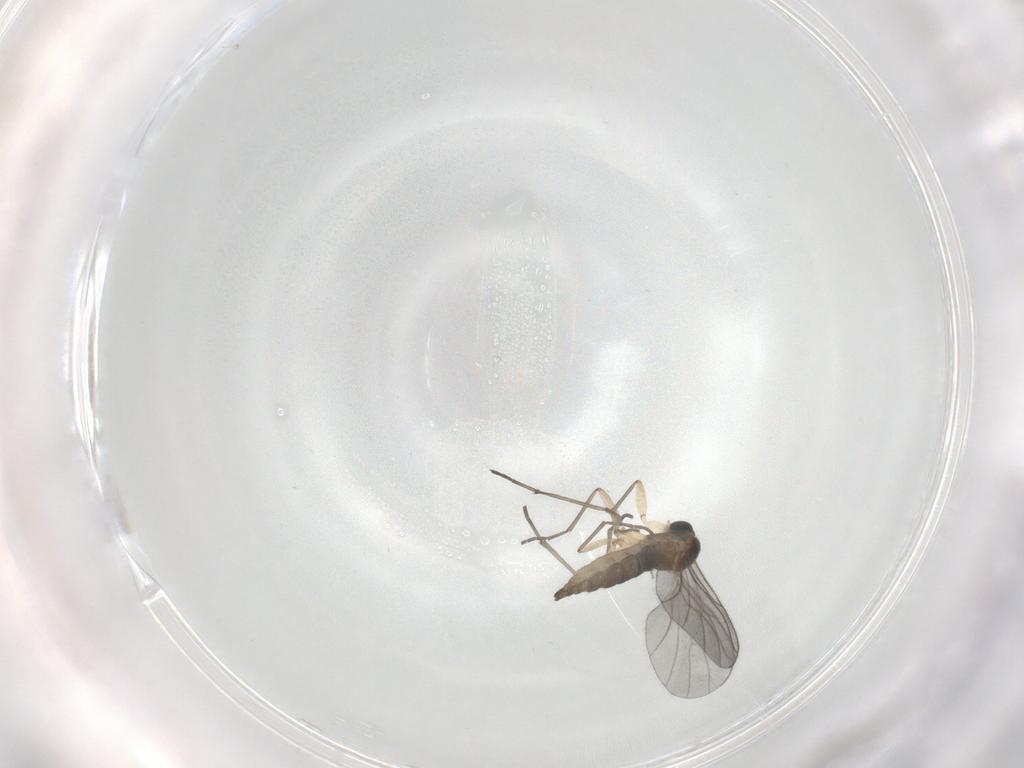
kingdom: Animalia
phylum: Arthropoda
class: Insecta
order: Diptera
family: Sciaridae
